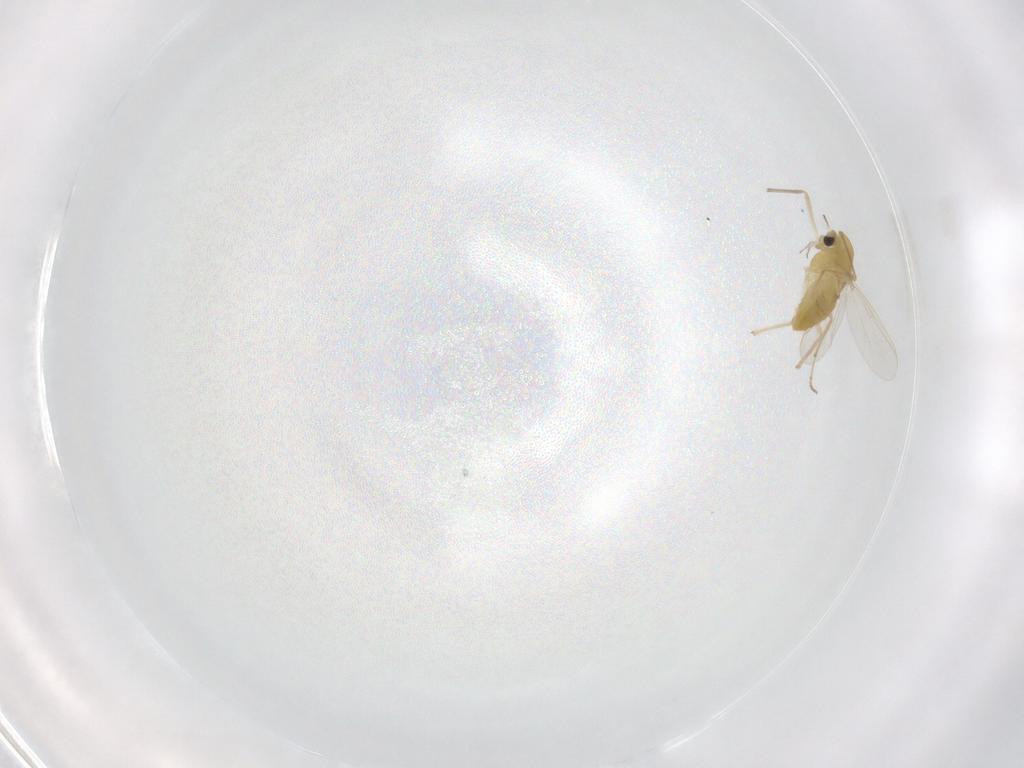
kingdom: Animalia
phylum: Arthropoda
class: Insecta
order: Diptera
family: Chironomidae
